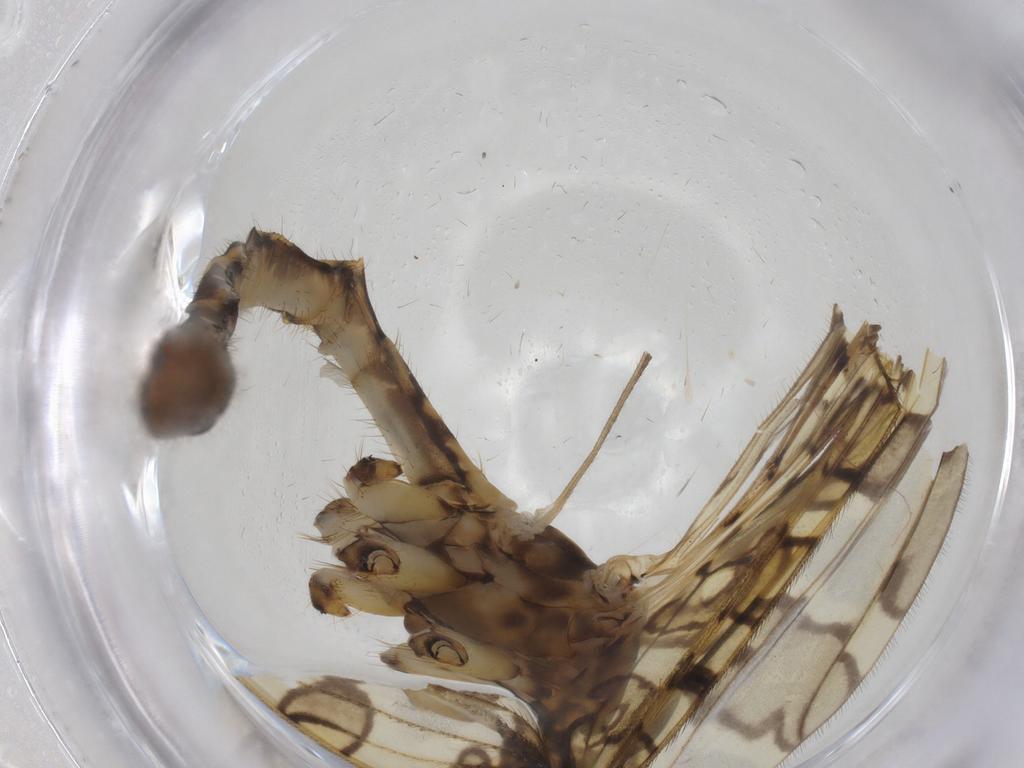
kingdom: Animalia
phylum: Arthropoda
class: Insecta
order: Diptera
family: Limoniidae
